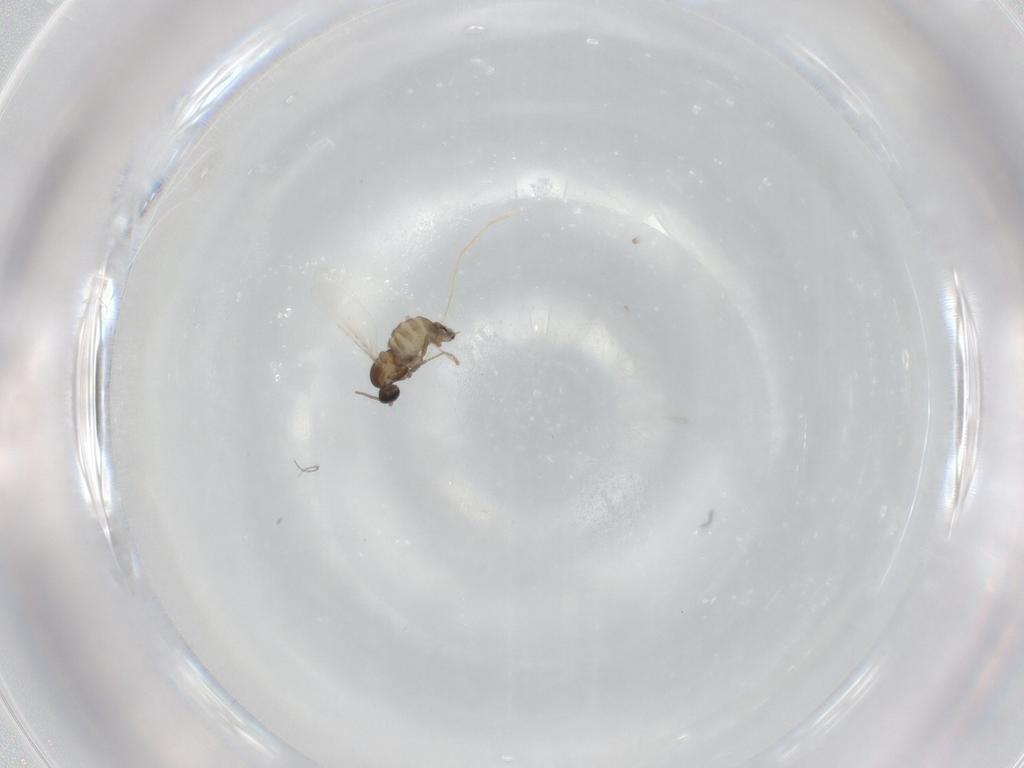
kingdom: Animalia
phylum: Arthropoda
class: Insecta
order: Diptera
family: Cecidomyiidae
